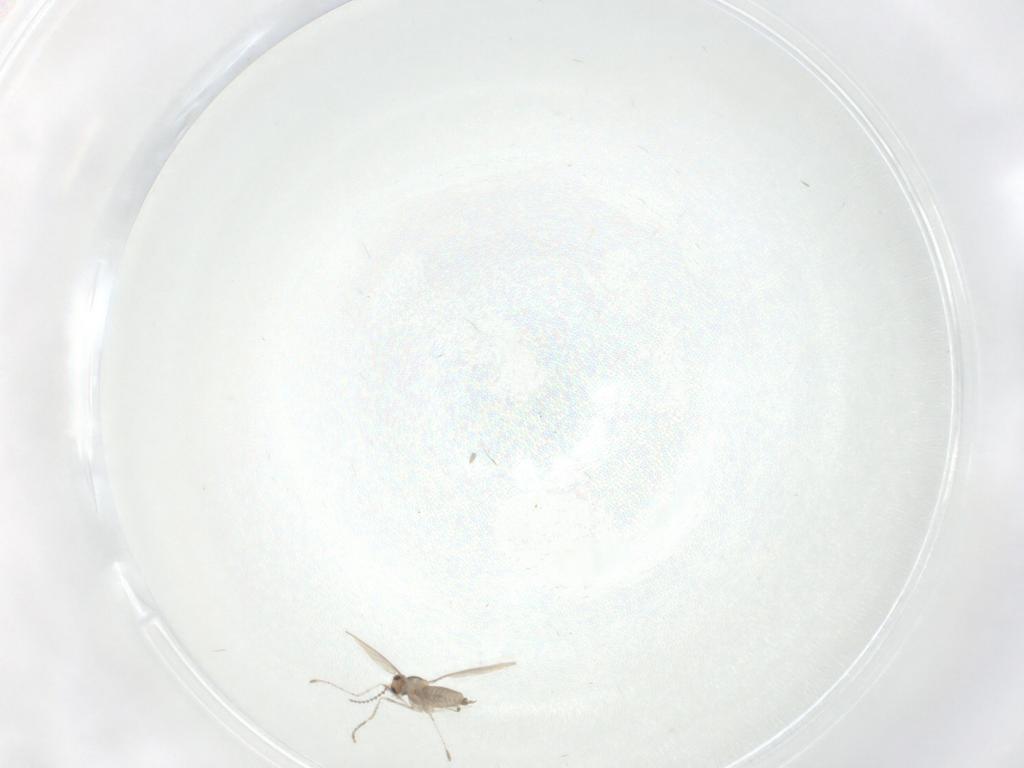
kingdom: Animalia
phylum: Arthropoda
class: Insecta
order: Diptera
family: Cecidomyiidae
